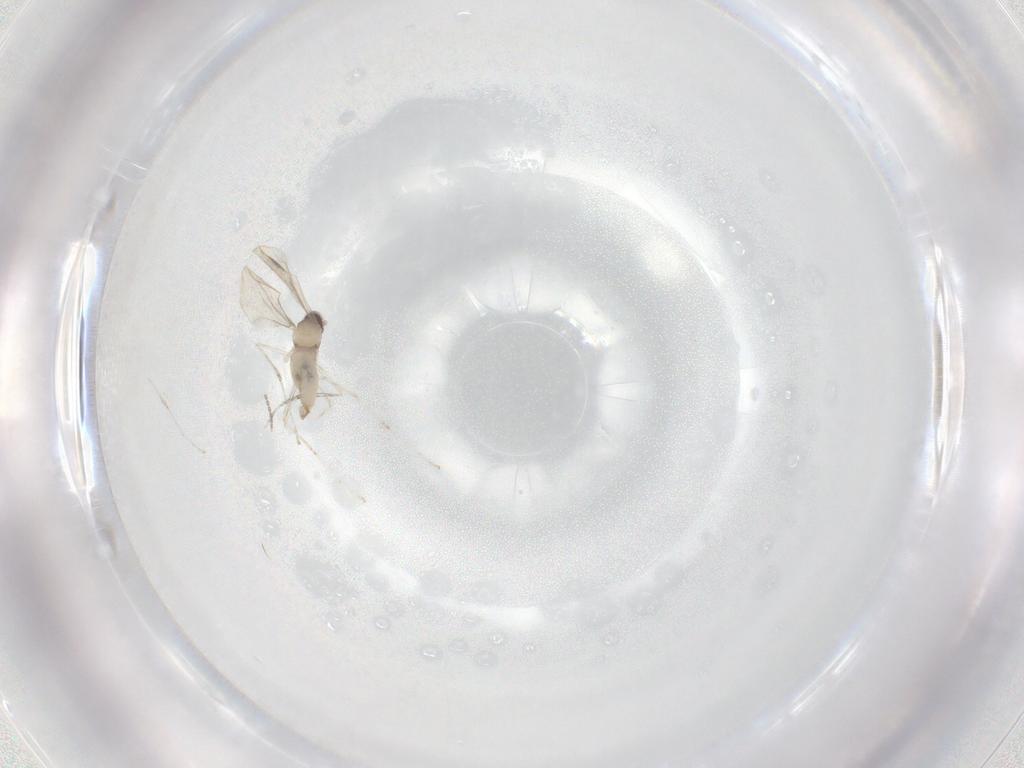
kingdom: Animalia
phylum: Arthropoda
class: Insecta
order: Diptera
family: Cecidomyiidae
